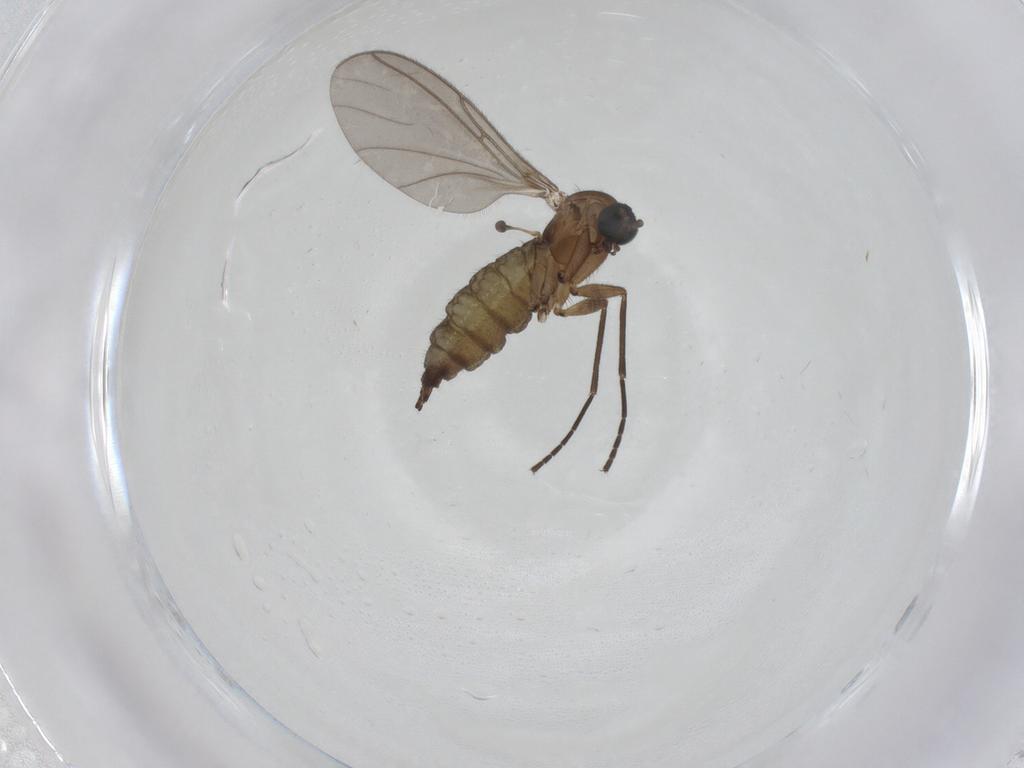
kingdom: Animalia
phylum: Arthropoda
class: Insecta
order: Diptera
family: Sciaridae
